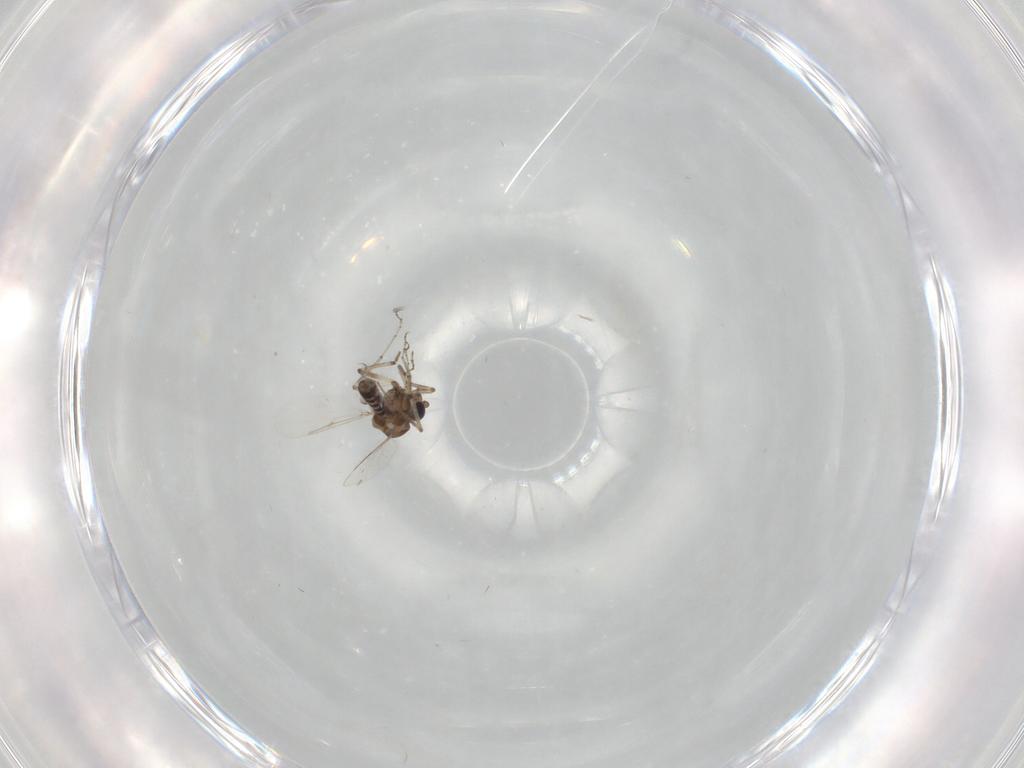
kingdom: Animalia
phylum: Arthropoda
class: Insecta
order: Diptera
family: Ceratopogonidae
